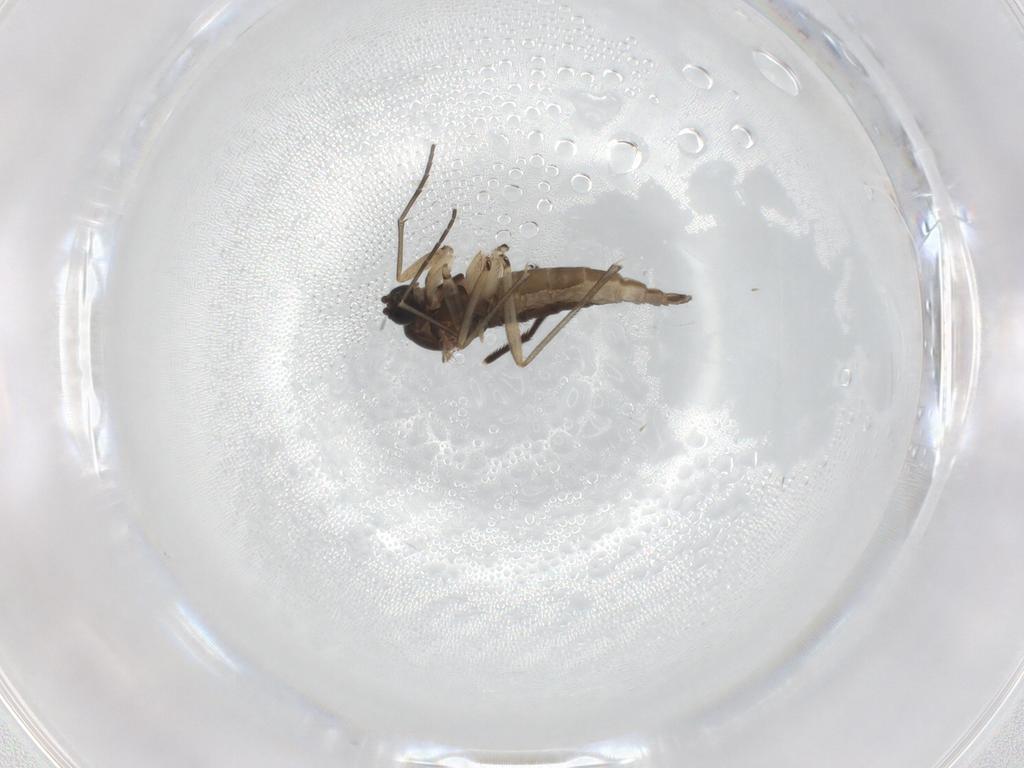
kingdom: Animalia
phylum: Arthropoda
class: Insecta
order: Diptera
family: Sciaridae
